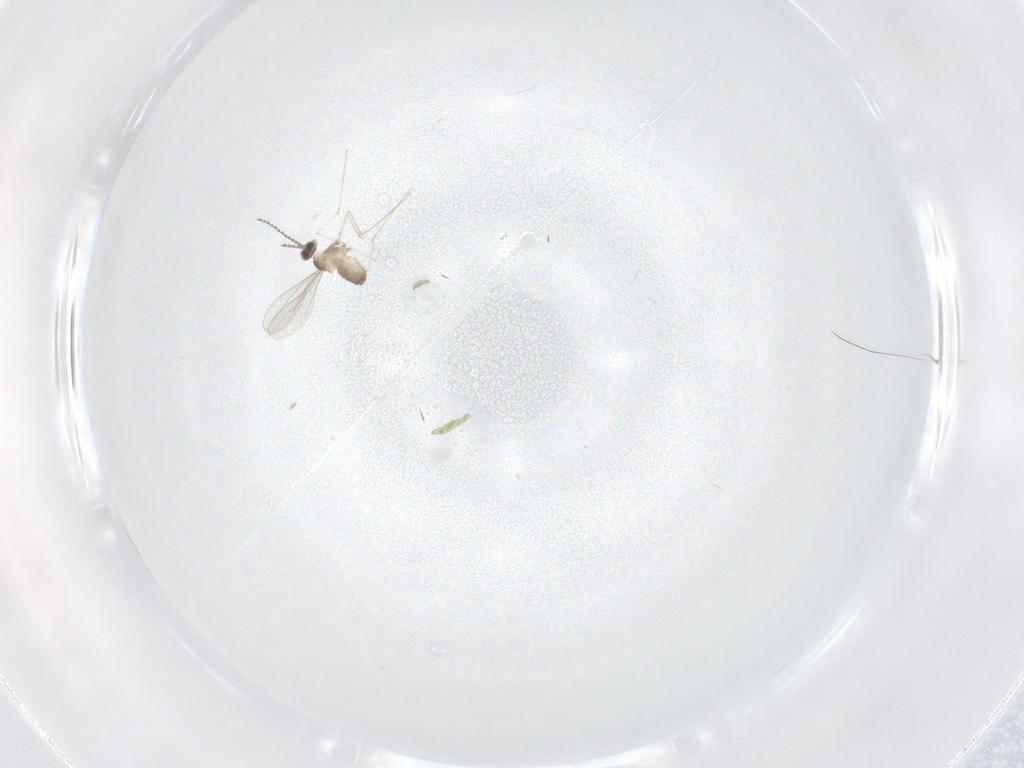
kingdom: Animalia
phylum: Arthropoda
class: Insecta
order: Diptera
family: Cecidomyiidae
